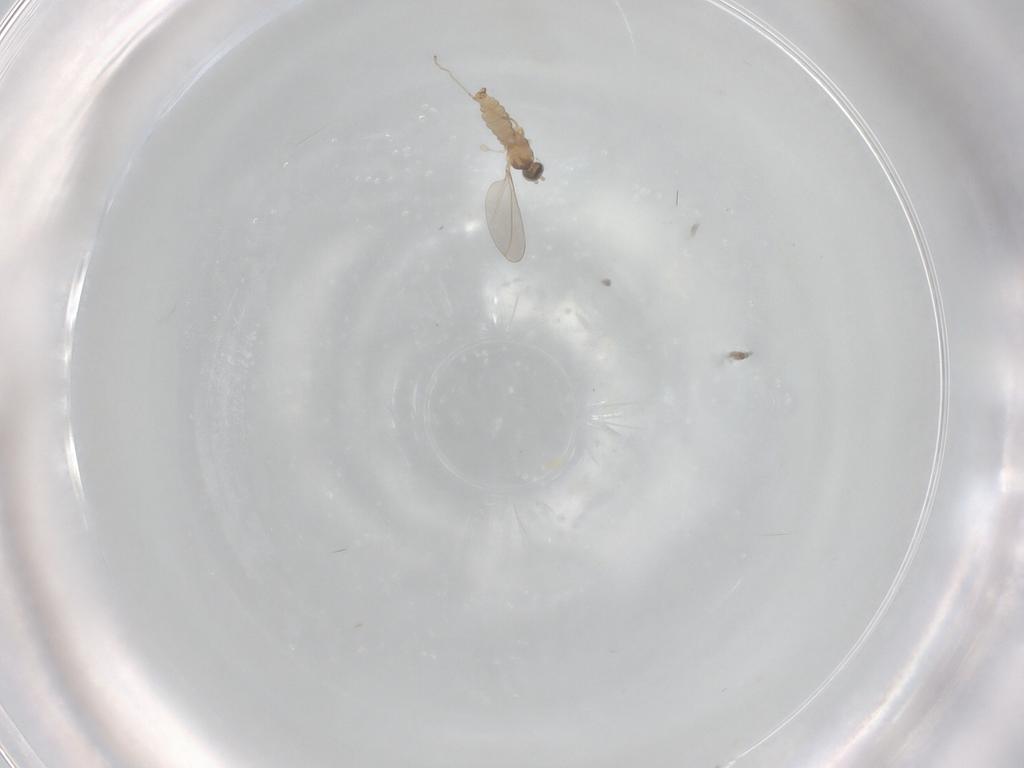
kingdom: Animalia
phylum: Arthropoda
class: Insecta
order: Diptera
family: Cecidomyiidae
